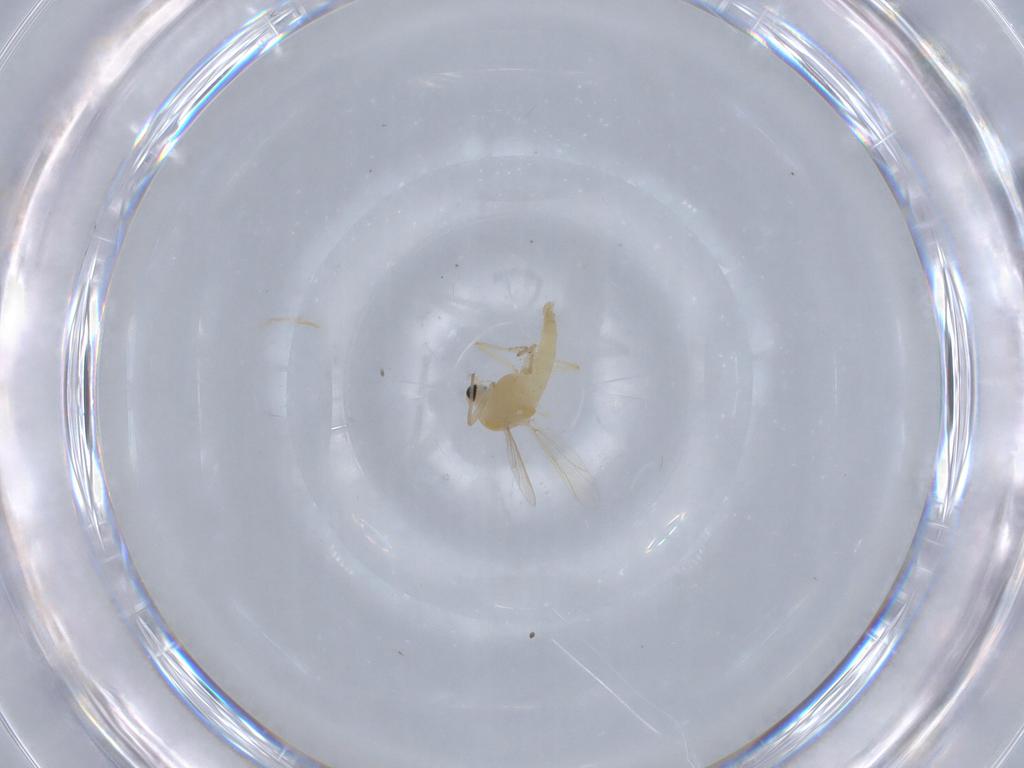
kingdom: Animalia
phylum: Arthropoda
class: Insecta
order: Diptera
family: Chironomidae
